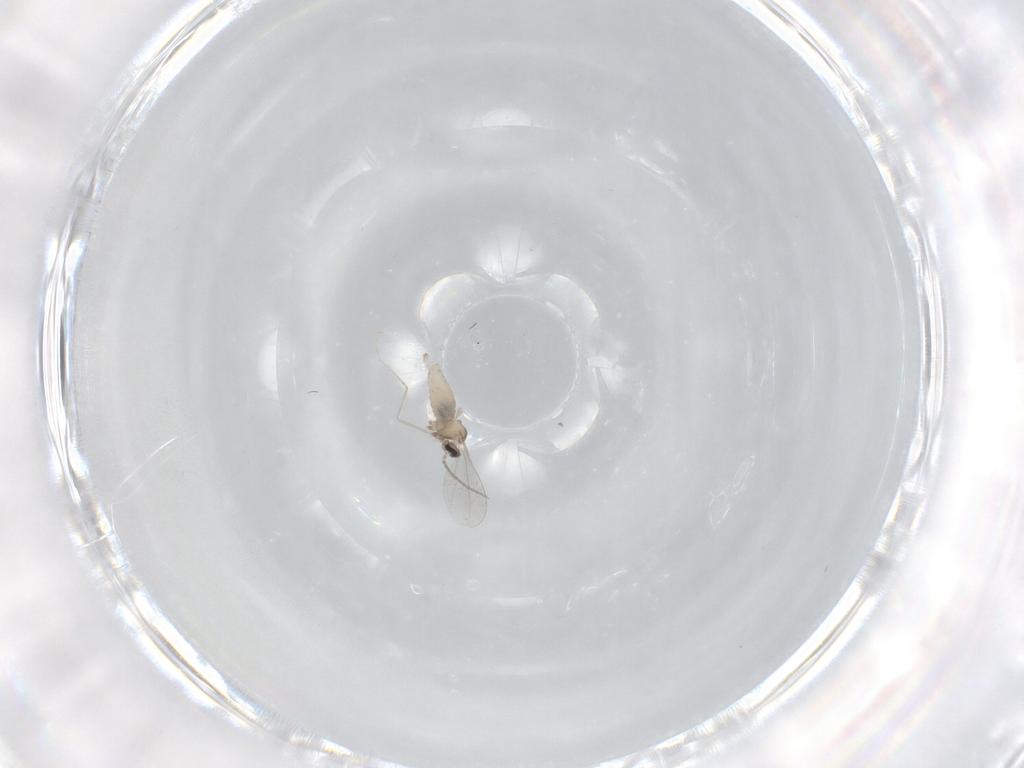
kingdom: Animalia
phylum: Arthropoda
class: Insecta
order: Diptera
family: Cecidomyiidae
